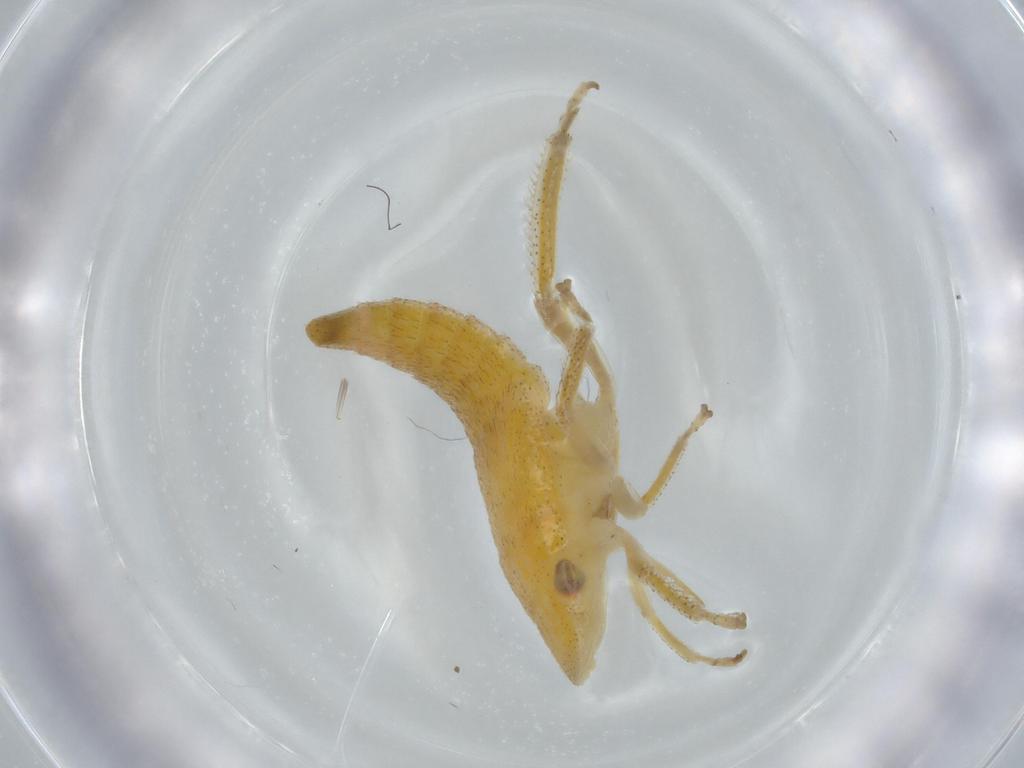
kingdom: Animalia
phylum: Arthropoda
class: Insecta
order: Hemiptera
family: Cicadellidae
